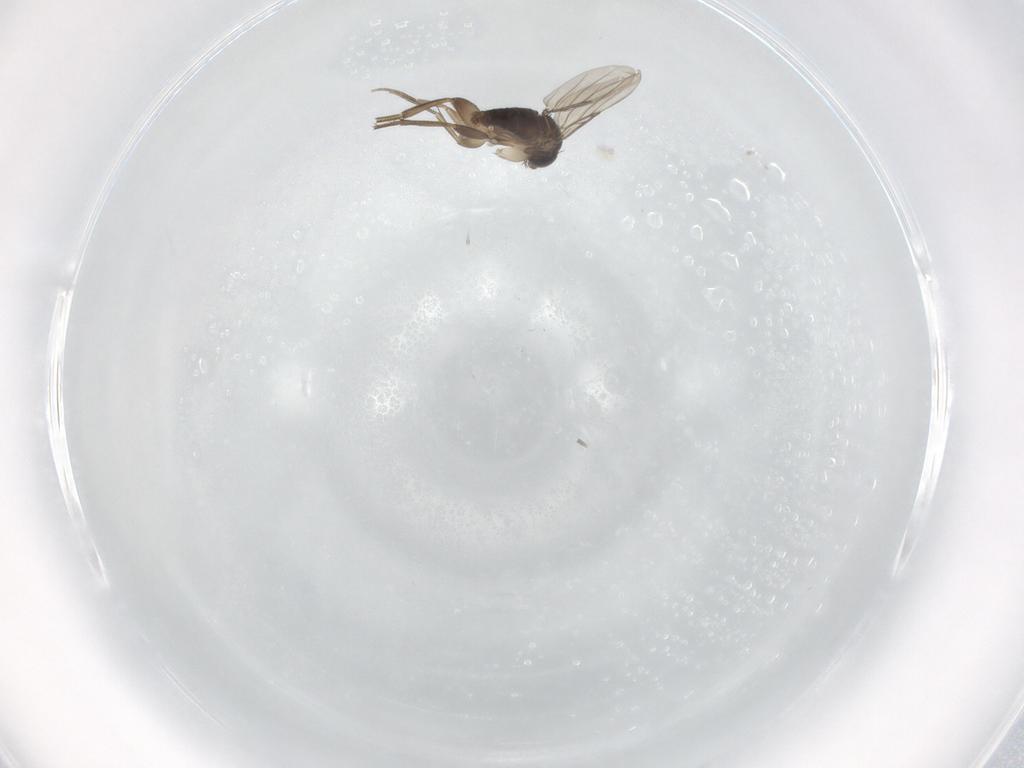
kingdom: Animalia
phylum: Arthropoda
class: Insecta
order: Diptera
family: Phoridae
